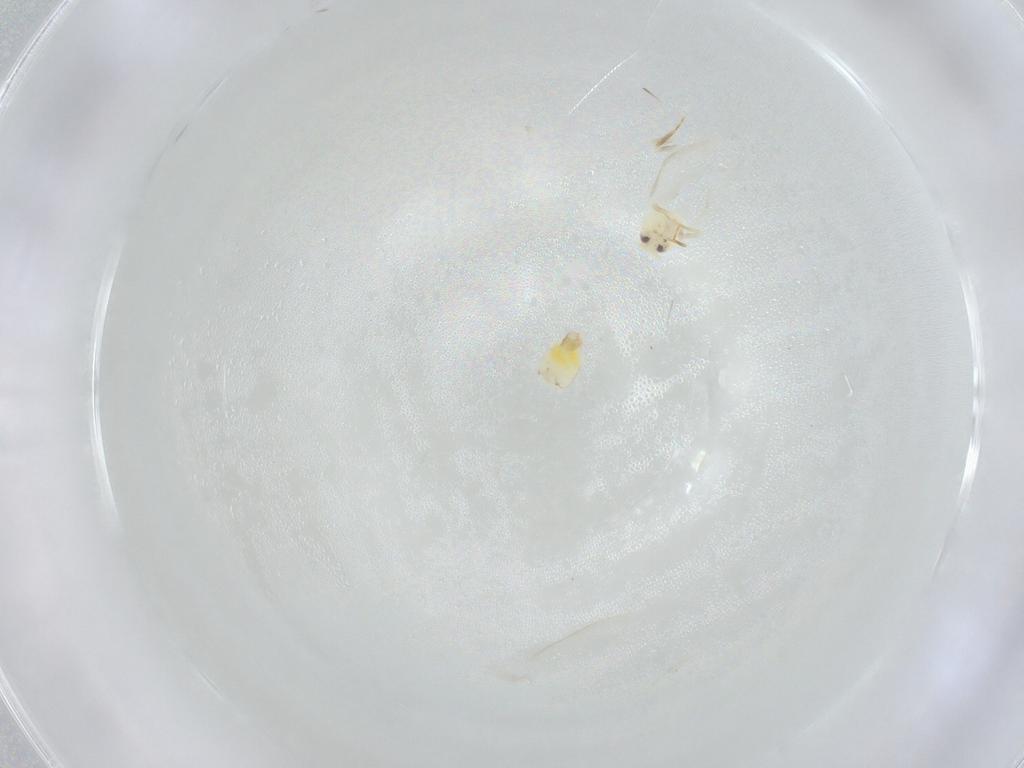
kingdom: Animalia
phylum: Arthropoda
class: Insecta
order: Hemiptera
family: Aleyrodidae
